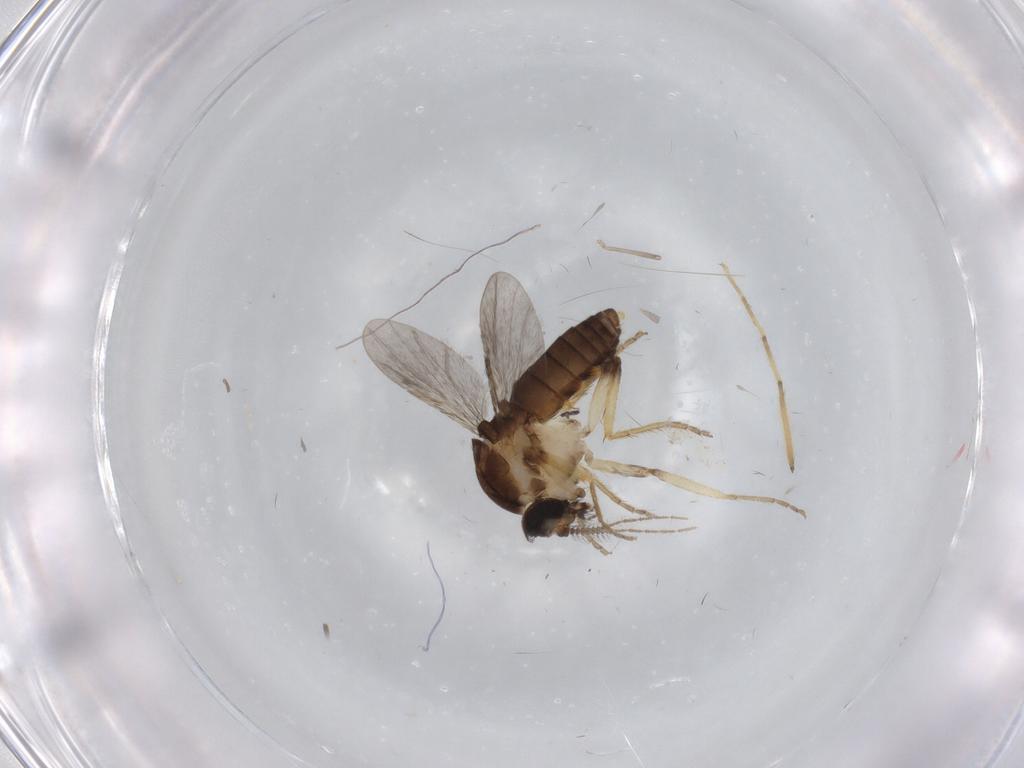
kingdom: Animalia
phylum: Arthropoda
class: Insecta
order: Diptera
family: Ceratopogonidae
